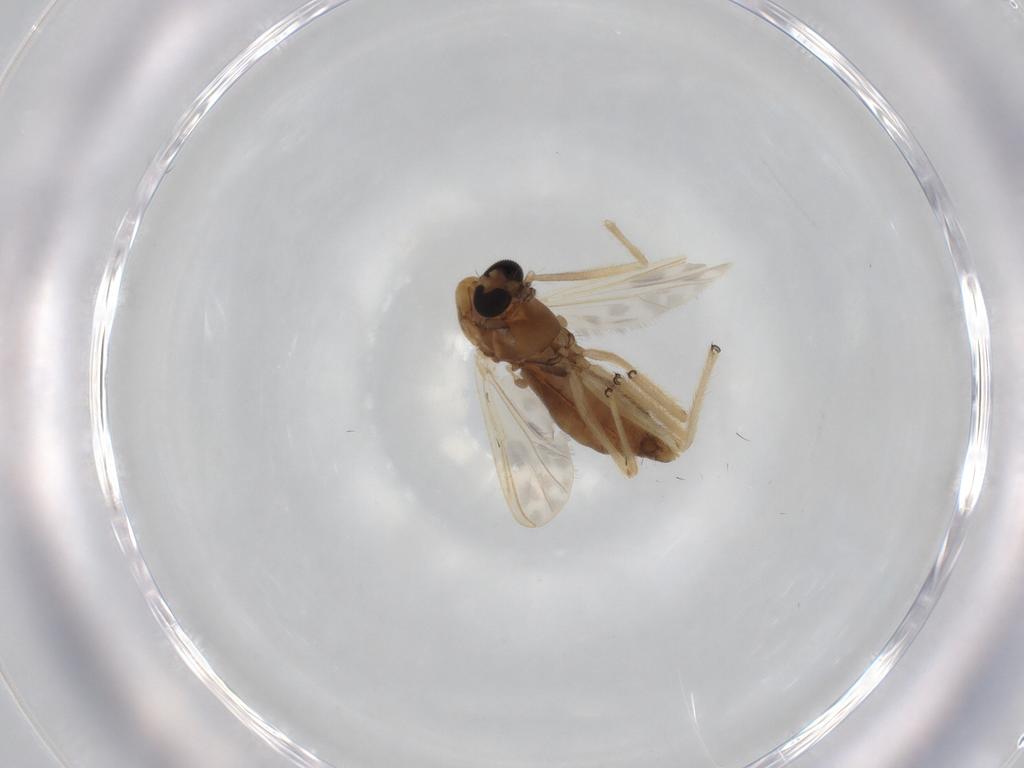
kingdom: Animalia
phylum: Arthropoda
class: Insecta
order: Diptera
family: Chironomidae
